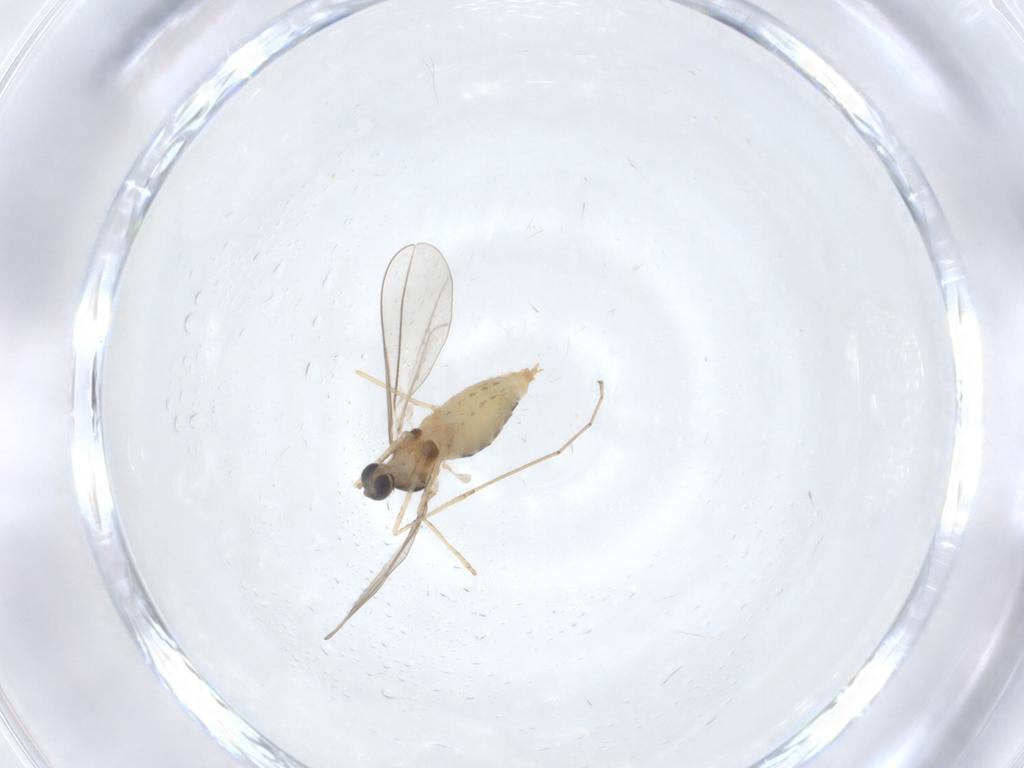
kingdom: Animalia
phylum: Arthropoda
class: Insecta
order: Diptera
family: Cecidomyiidae
